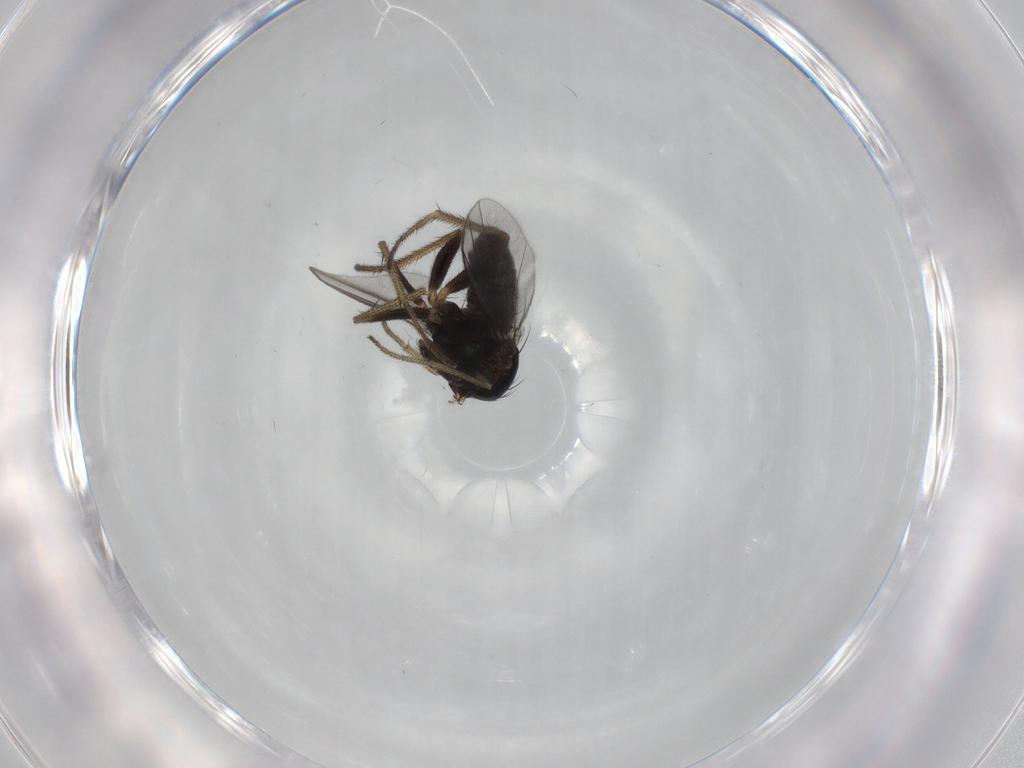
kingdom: Animalia
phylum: Arthropoda
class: Insecta
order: Diptera
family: Dolichopodidae
